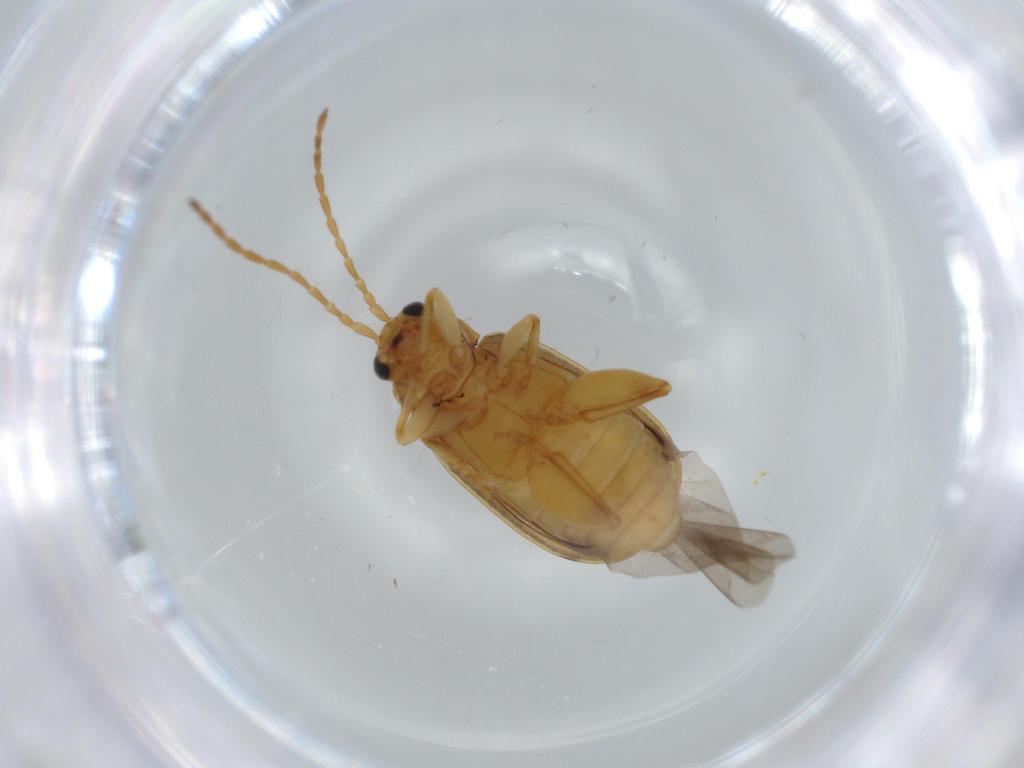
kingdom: Animalia
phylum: Arthropoda
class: Insecta
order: Coleoptera
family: Chrysomelidae
